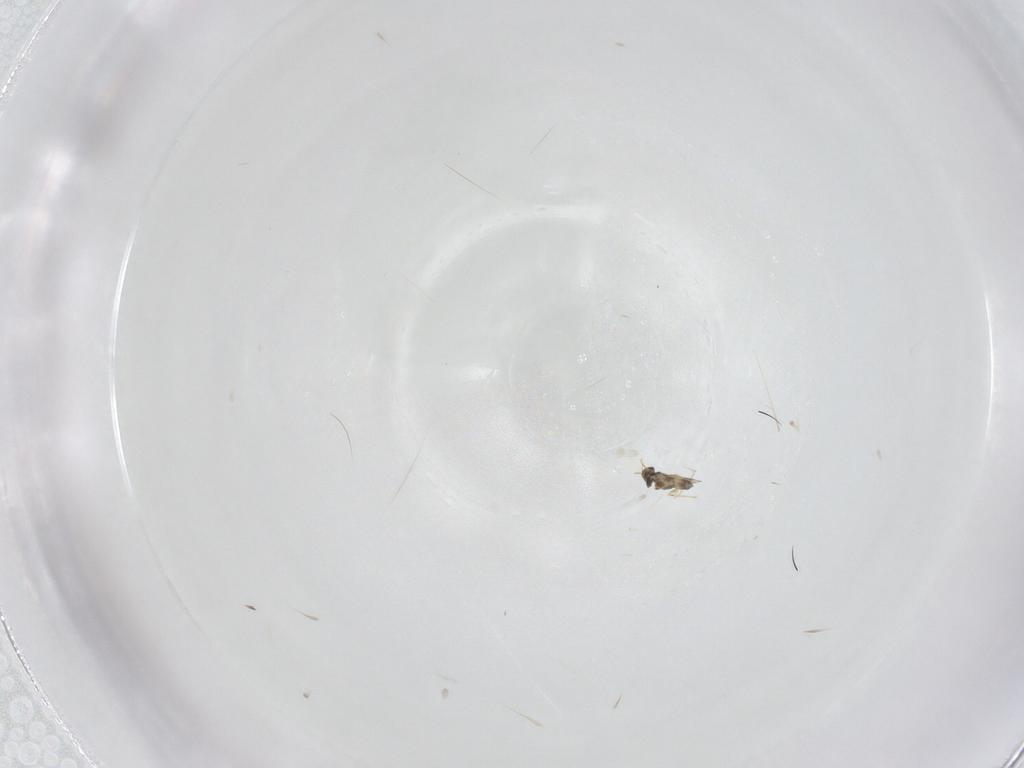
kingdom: Animalia
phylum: Arthropoda
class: Insecta
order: Hymenoptera
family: Mymaridae
